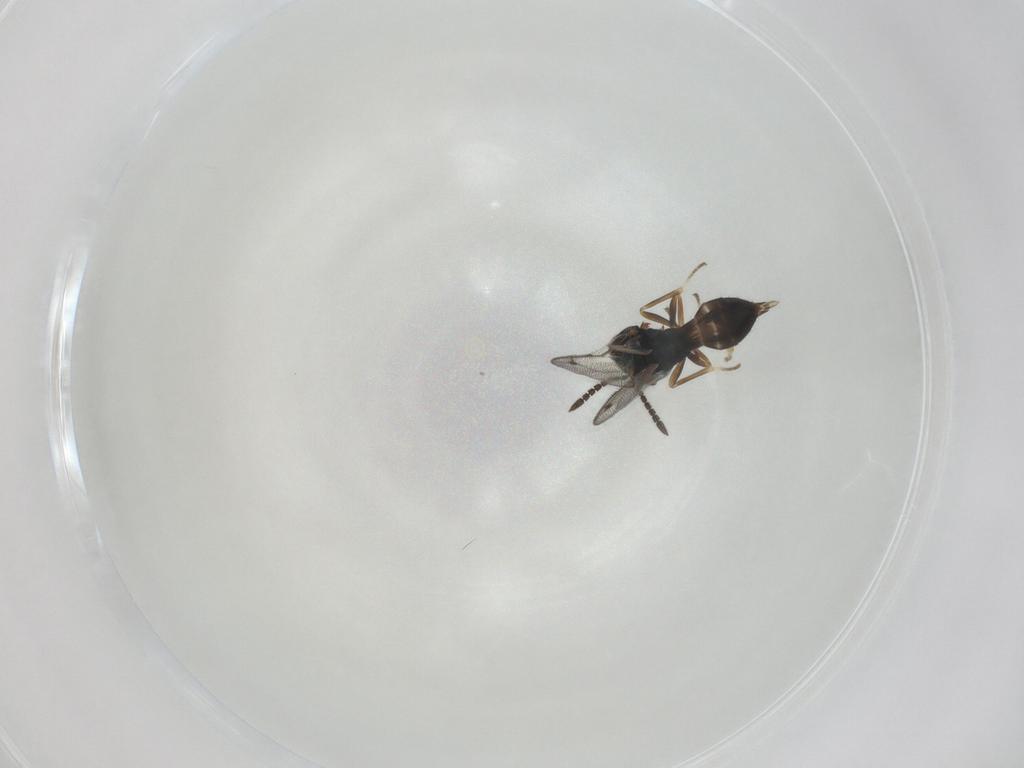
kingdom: Animalia
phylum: Arthropoda
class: Insecta
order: Hymenoptera
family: Pteromalidae
